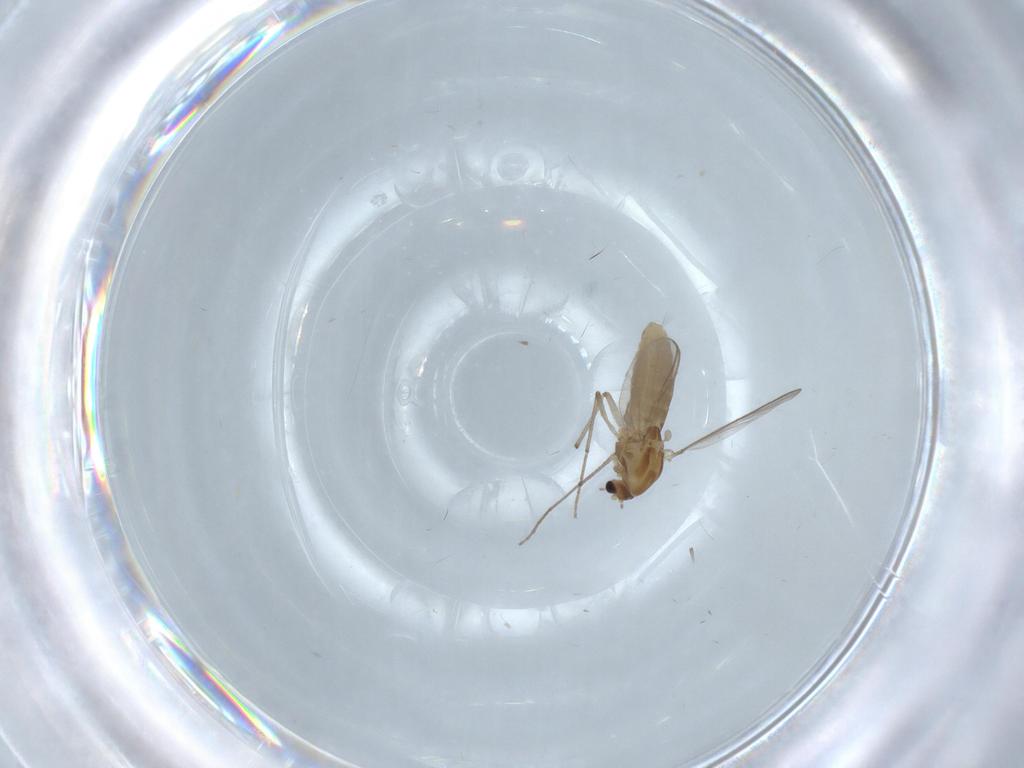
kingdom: Animalia
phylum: Arthropoda
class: Insecta
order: Diptera
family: Chironomidae
